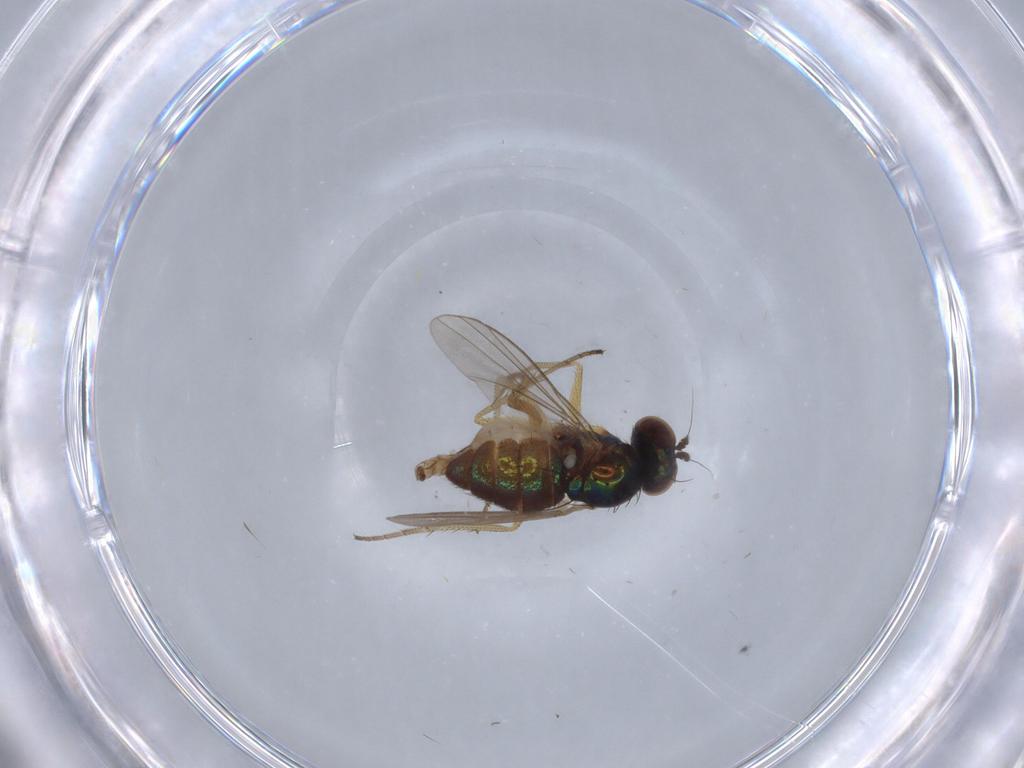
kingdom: Animalia
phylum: Arthropoda
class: Insecta
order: Diptera
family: Dolichopodidae
